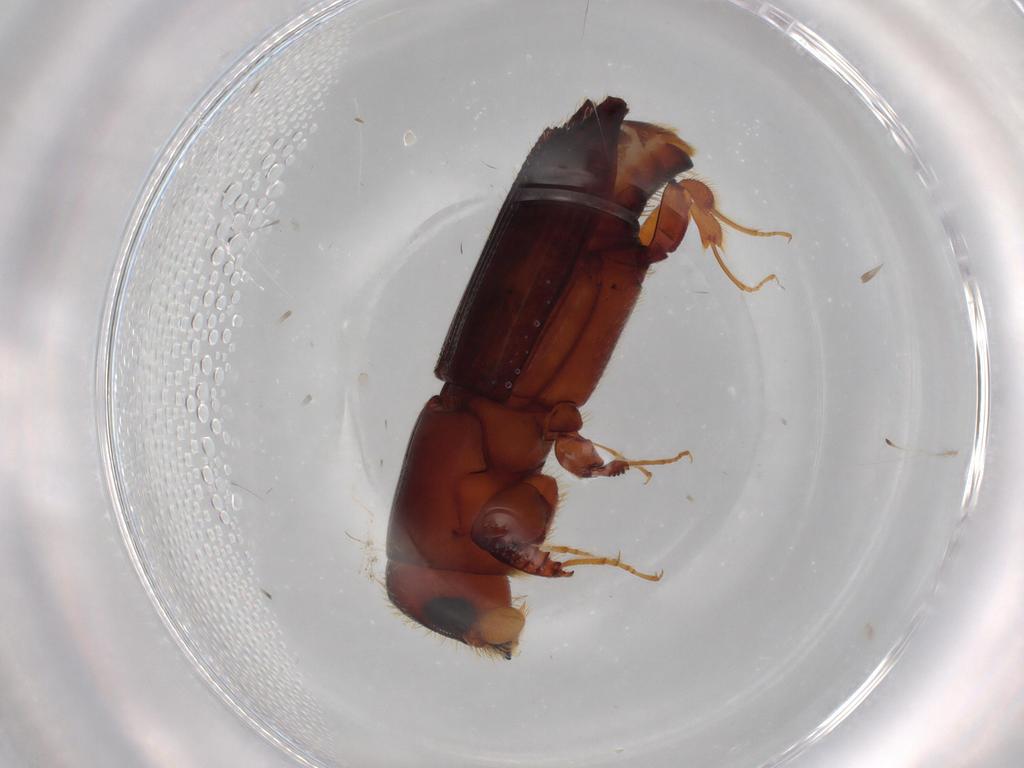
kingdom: Animalia
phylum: Arthropoda
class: Insecta
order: Coleoptera
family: Curculionidae
